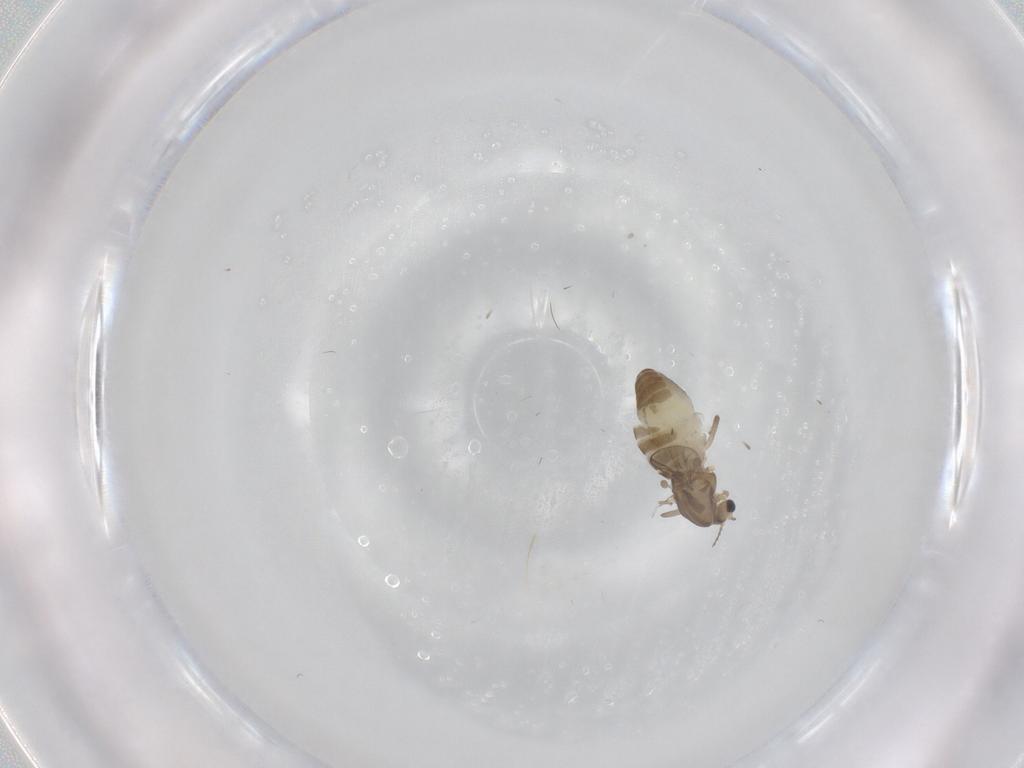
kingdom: Animalia
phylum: Arthropoda
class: Insecta
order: Diptera
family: Chironomidae
